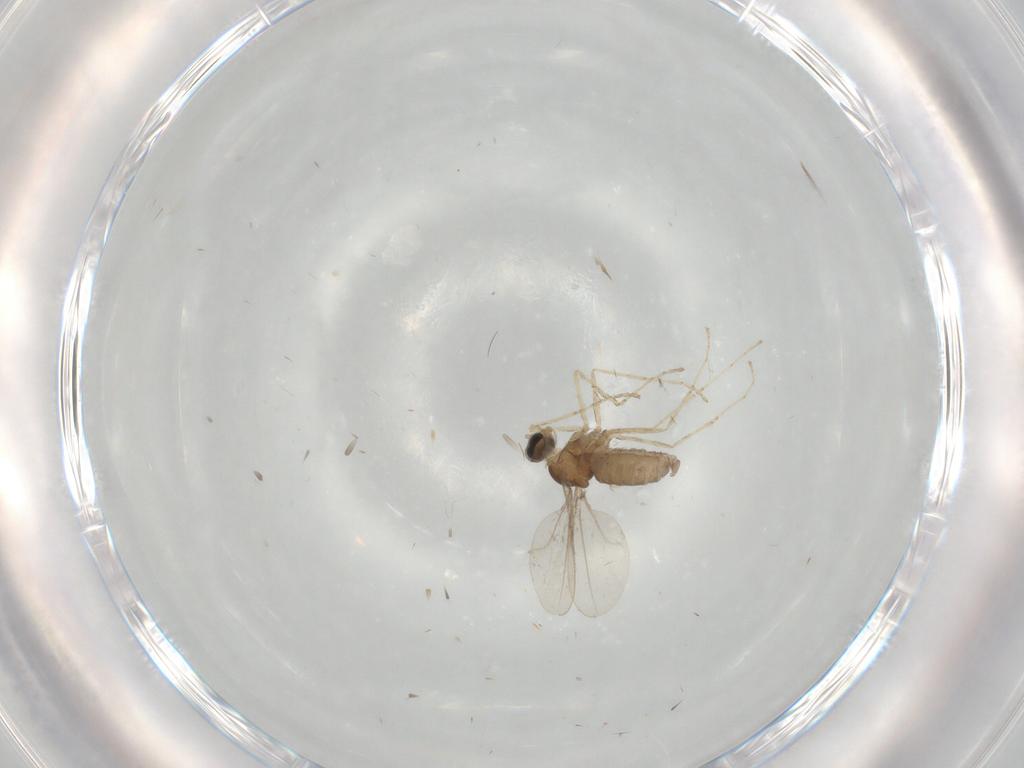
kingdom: Animalia
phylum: Arthropoda
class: Insecta
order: Diptera
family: Cecidomyiidae
